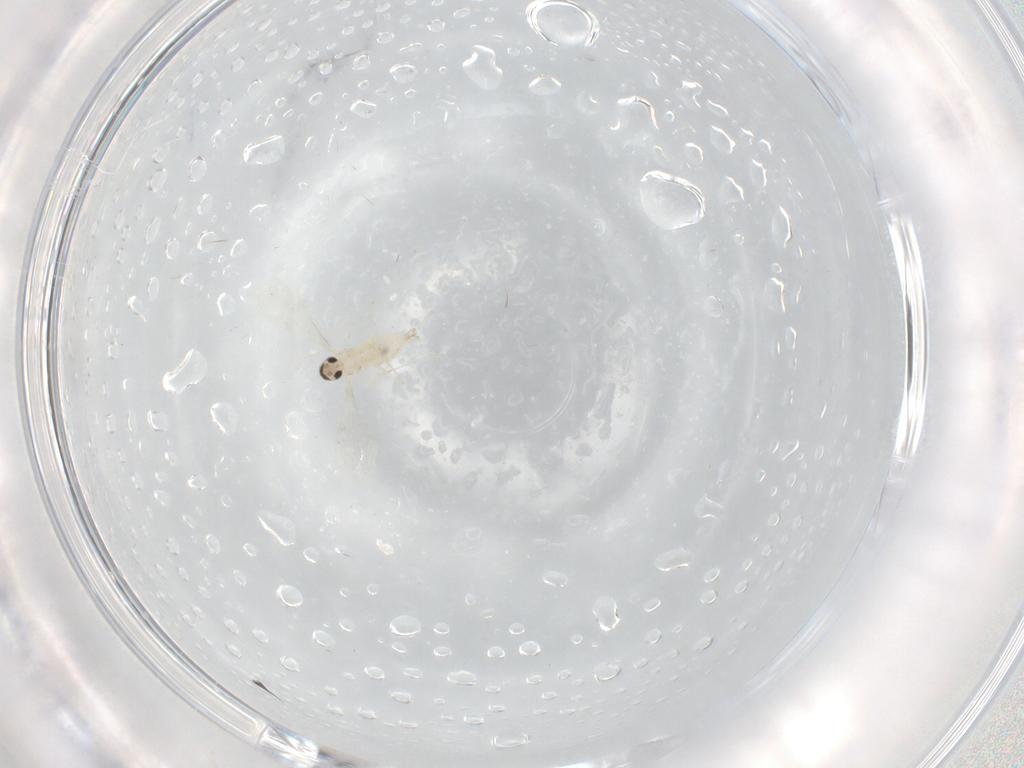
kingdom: Animalia
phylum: Arthropoda
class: Insecta
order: Diptera
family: Cecidomyiidae
